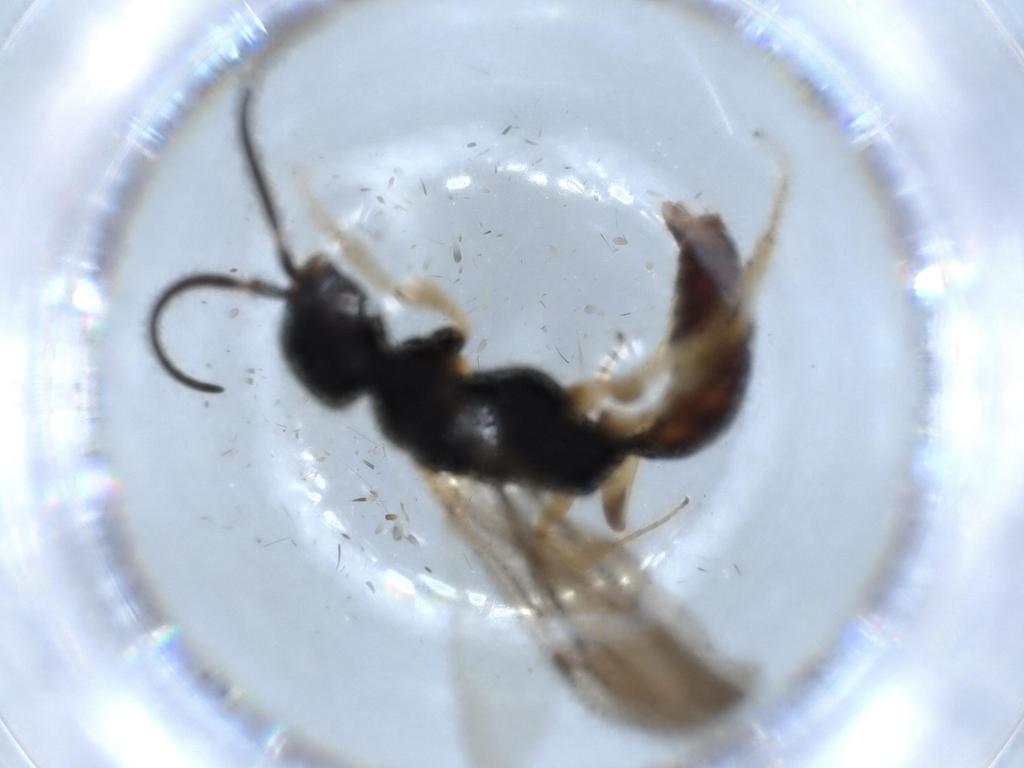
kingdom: Animalia
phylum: Arthropoda
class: Insecta
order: Hymenoptera
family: Bethylidae
